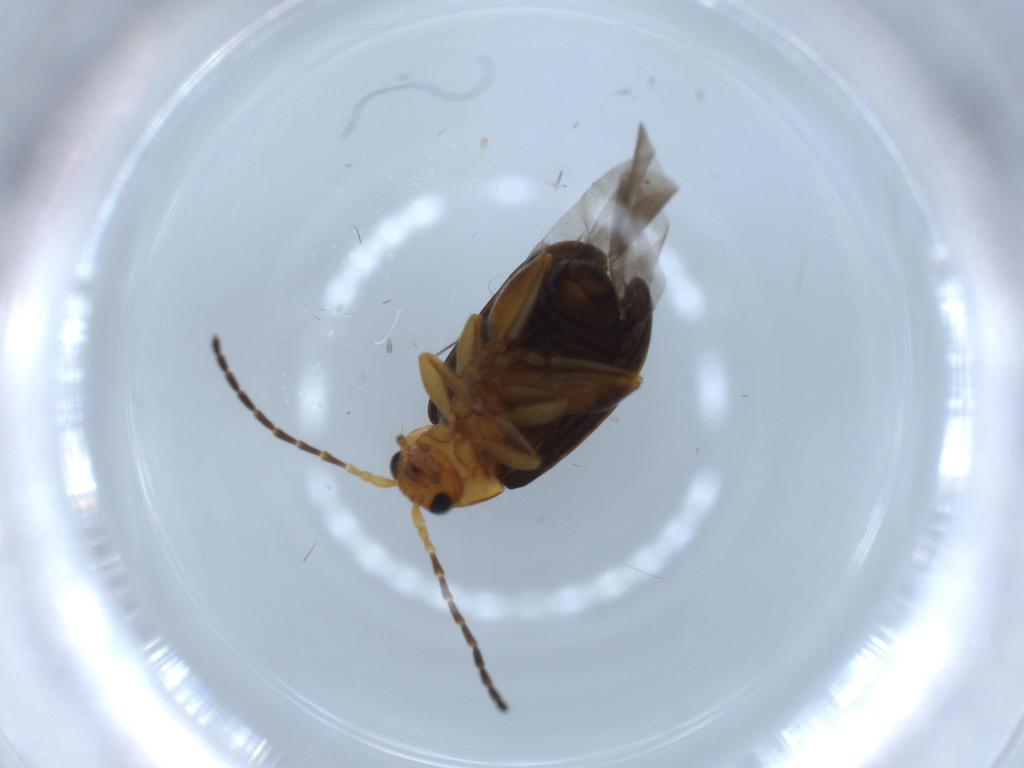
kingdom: Animalia
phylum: Arthropoda
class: Insecta
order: Coleoptera
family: Chrysomelidae
